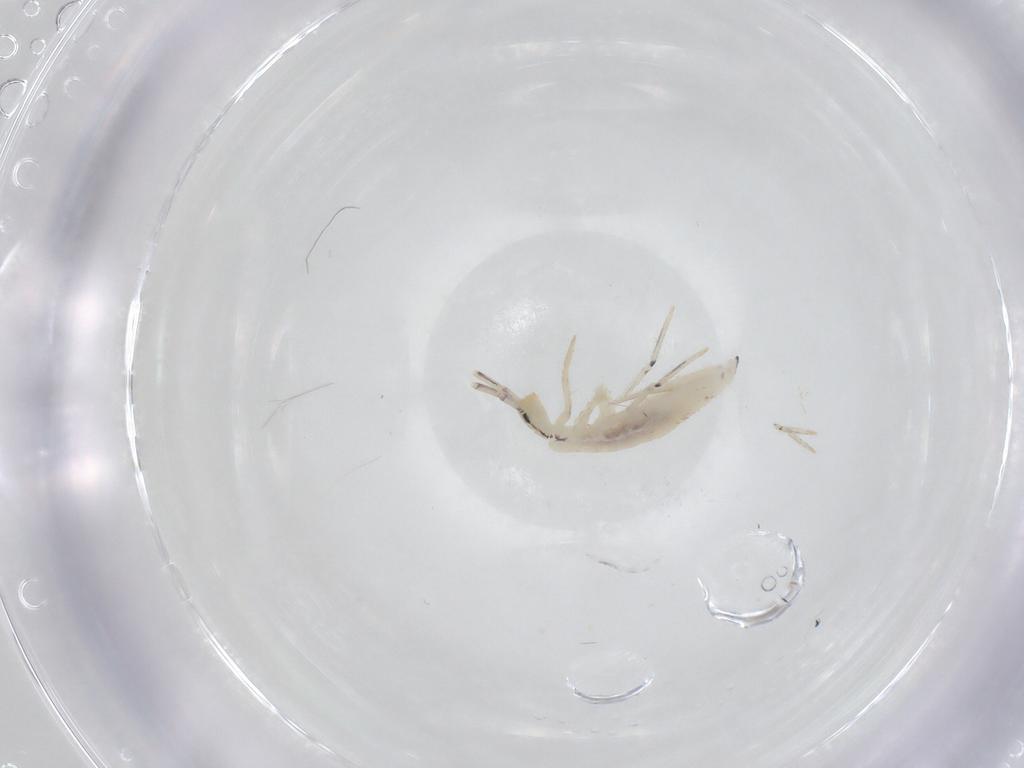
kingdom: Animalia
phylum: Arthropoda
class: Collembola
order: Entomobryomorpha
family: Entomobryidae
